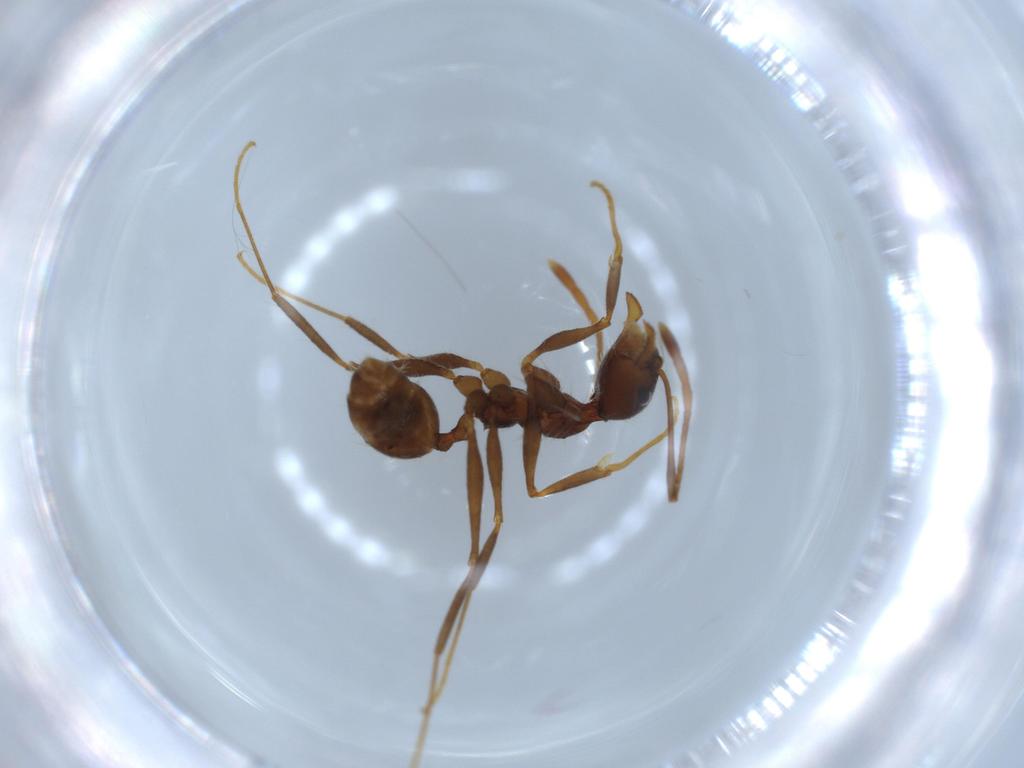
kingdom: Animalia
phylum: Arthropoda
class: Insecta
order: Hymenoptera
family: Formicidae
